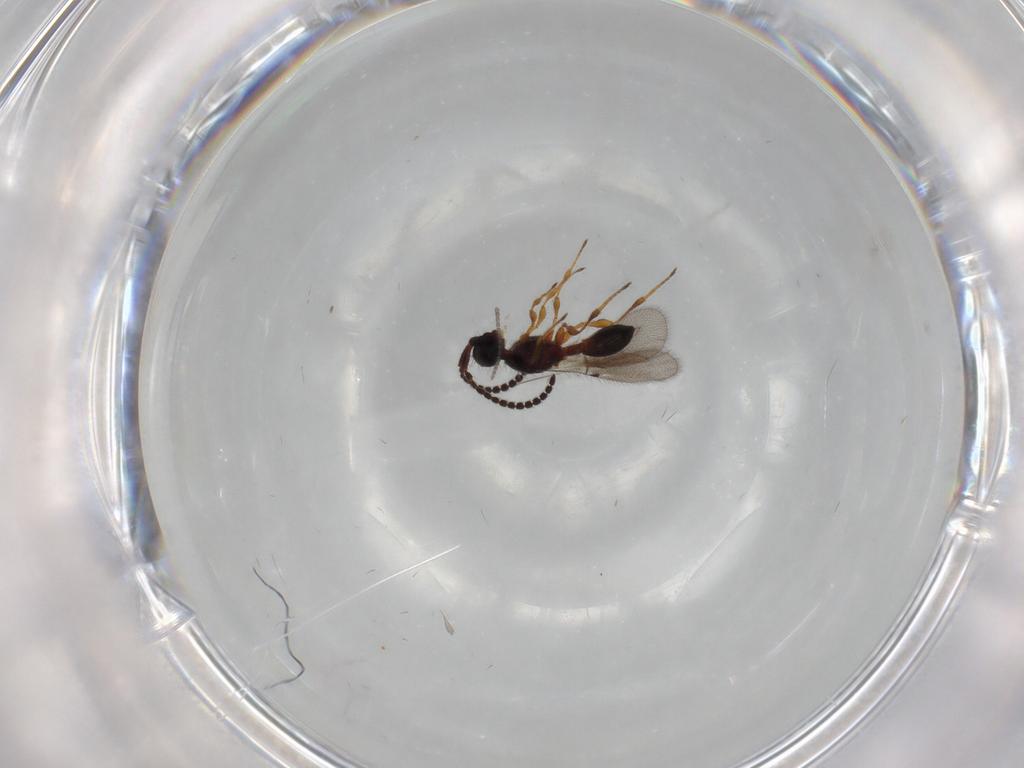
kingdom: Animalia
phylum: Arthropoda
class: Insecta
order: Hymenoptera
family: Diapriidae
